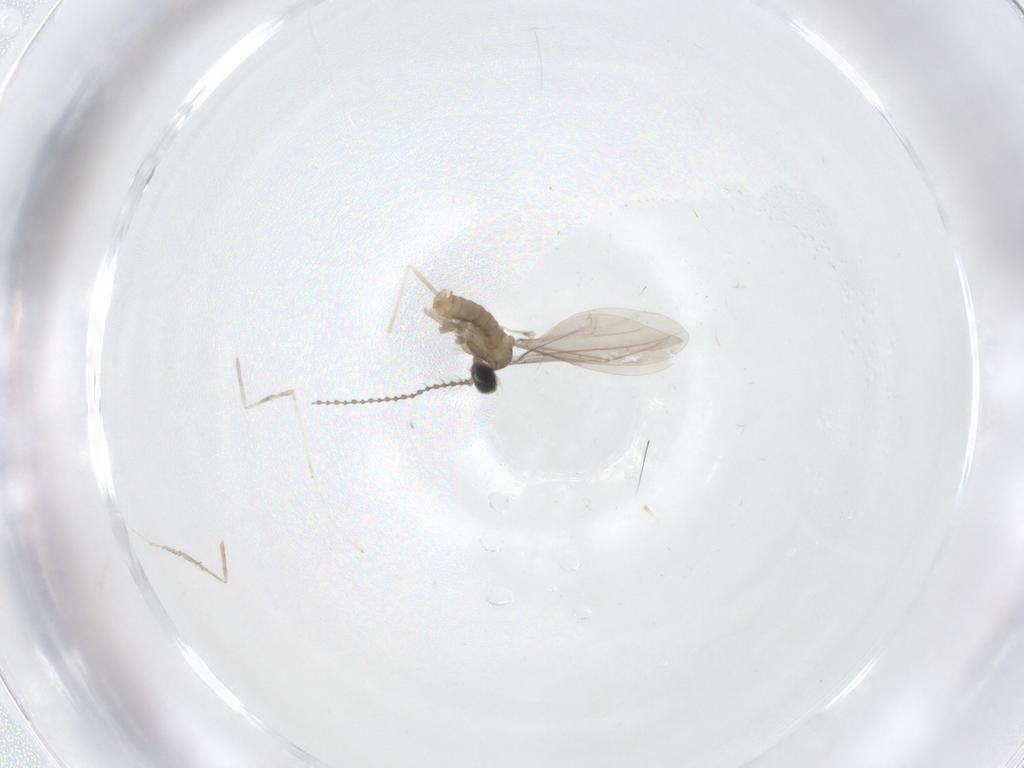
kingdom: Animalia
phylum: Arthropoda
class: Insecta
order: Diptera
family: Cecidomyiidae
